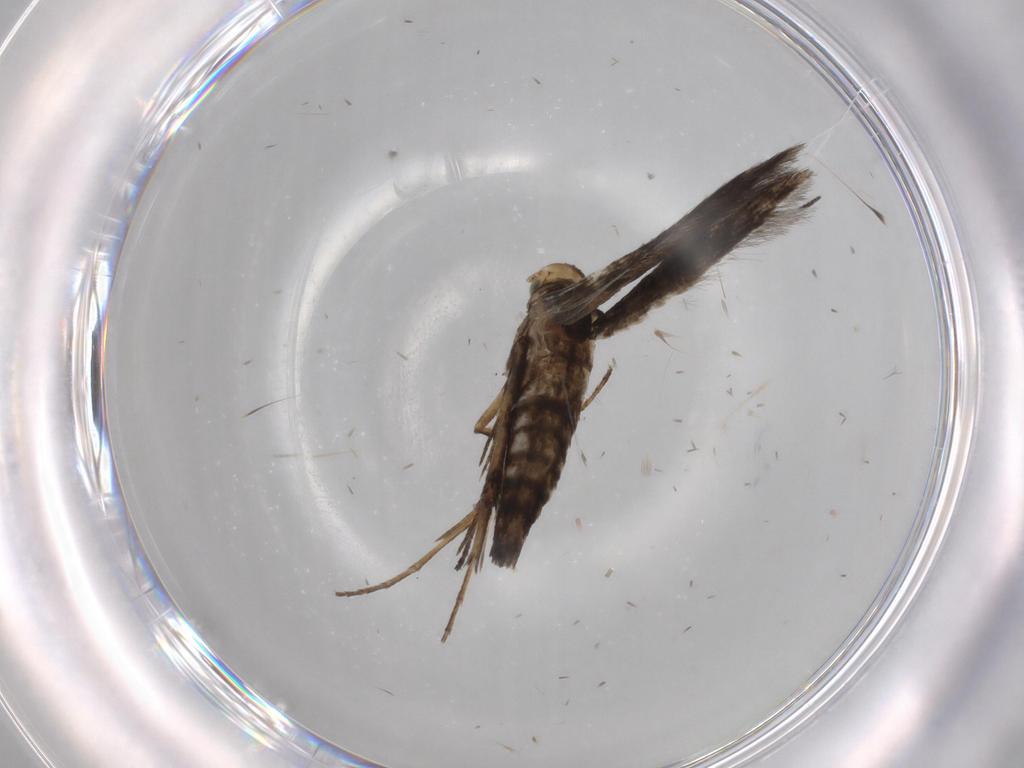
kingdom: Animalia
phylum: Arthropoda
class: Insecta
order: Lepidoptera
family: Heliodinidae
